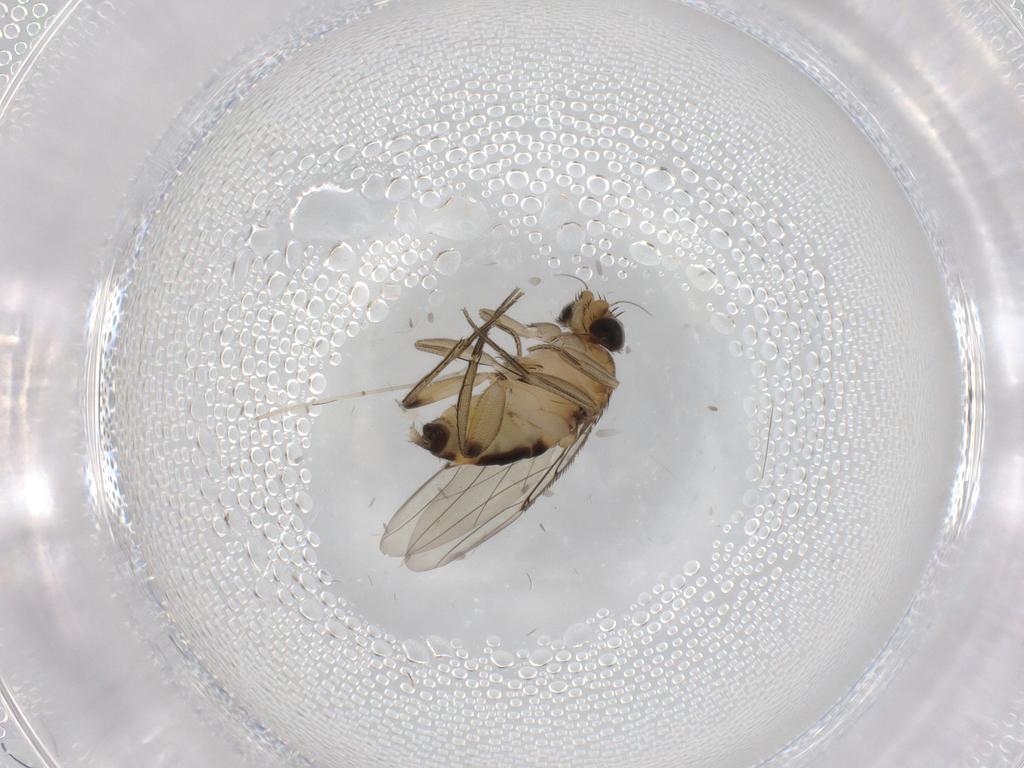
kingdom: Animalia
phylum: Arthropoda
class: Insecta
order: Diptera
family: Phoridae
